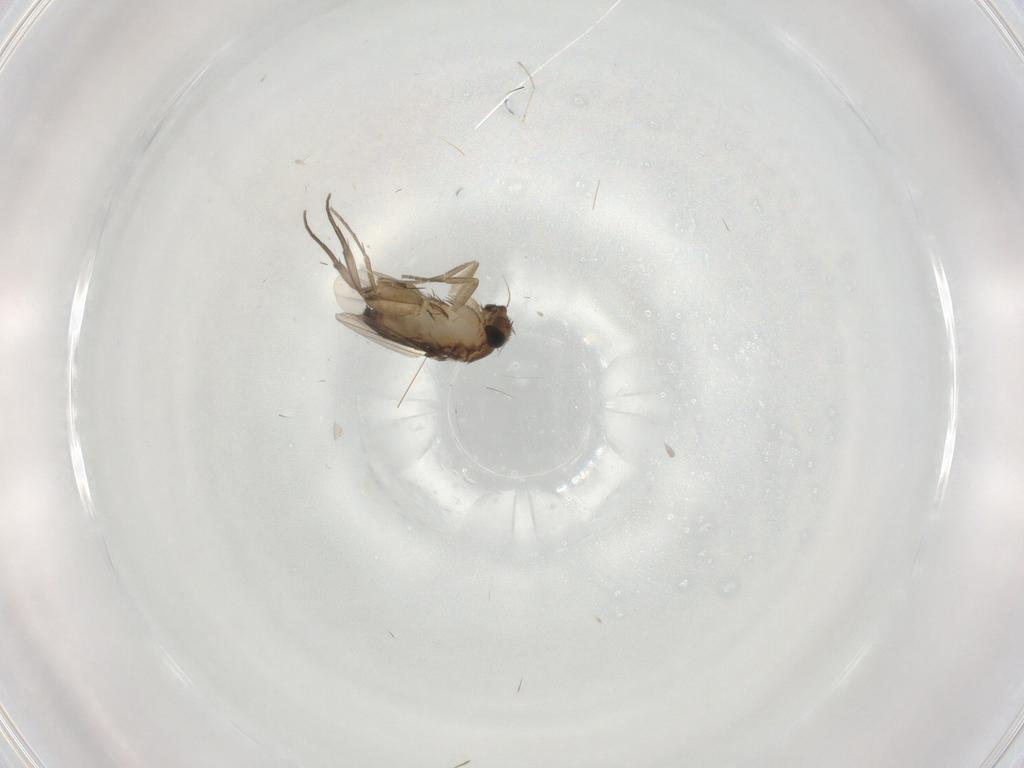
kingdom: Animalia
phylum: Arthropoda
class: Insecta
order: Diptera
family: Phoridae
